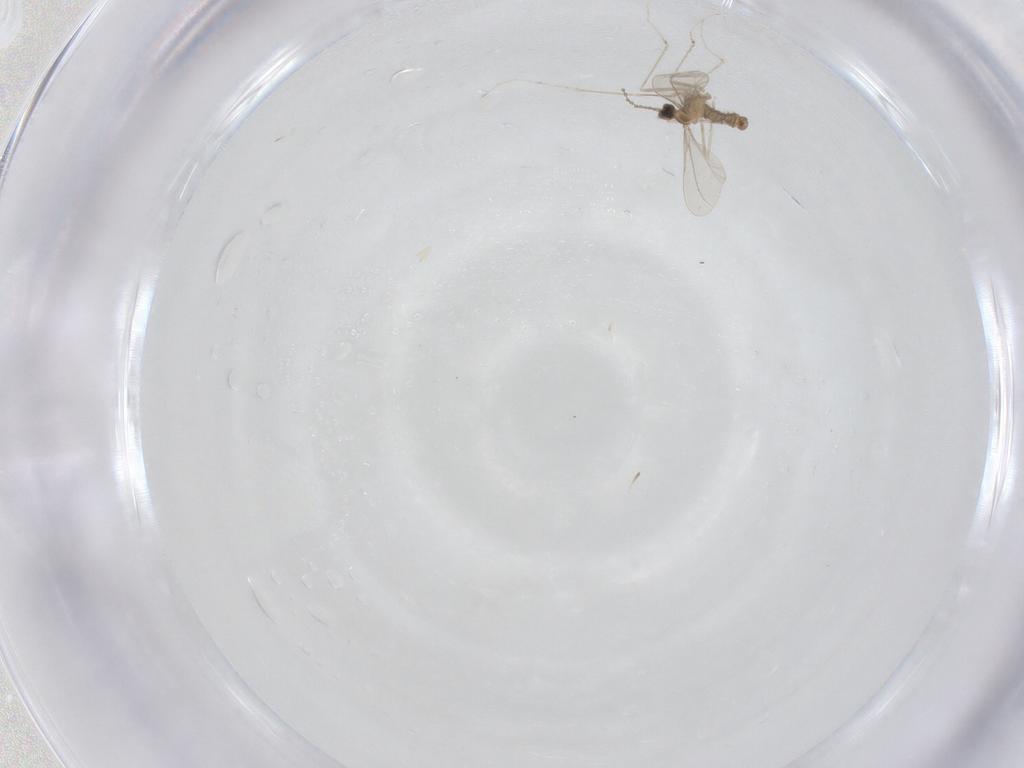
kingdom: Animalia
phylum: Arthropoda
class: Insecta
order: Diptera
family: Cecidomyiidae
